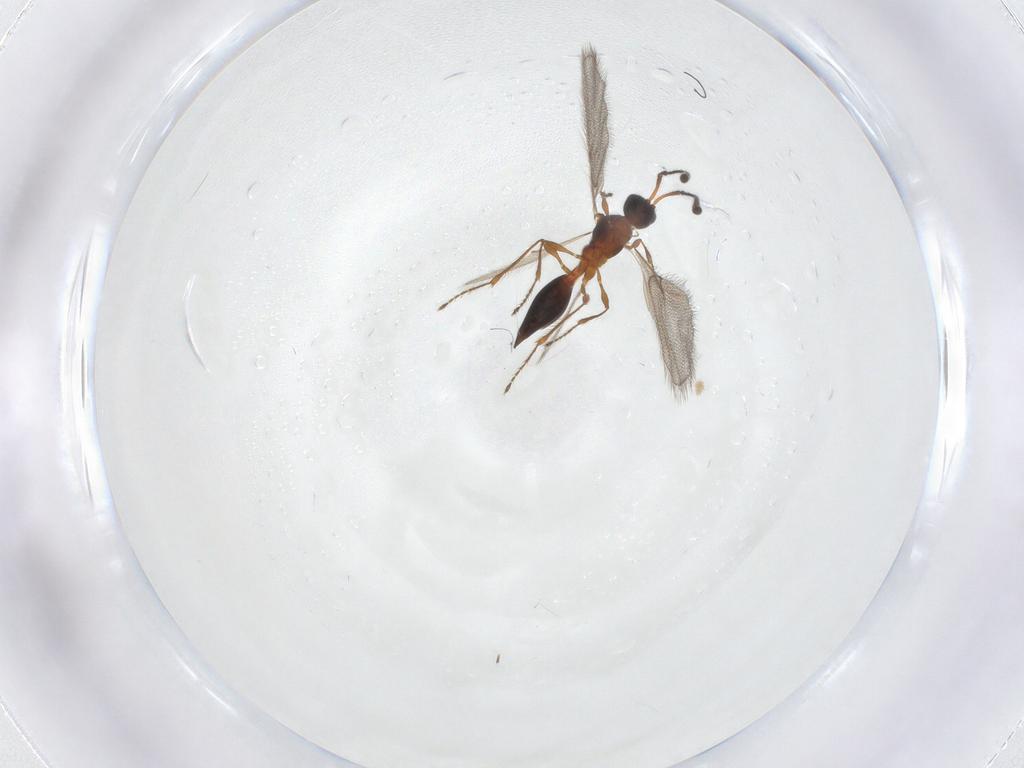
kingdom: Animalia
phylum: Arthropoda
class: Insecta
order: Hymenoptera
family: Diapriidae
